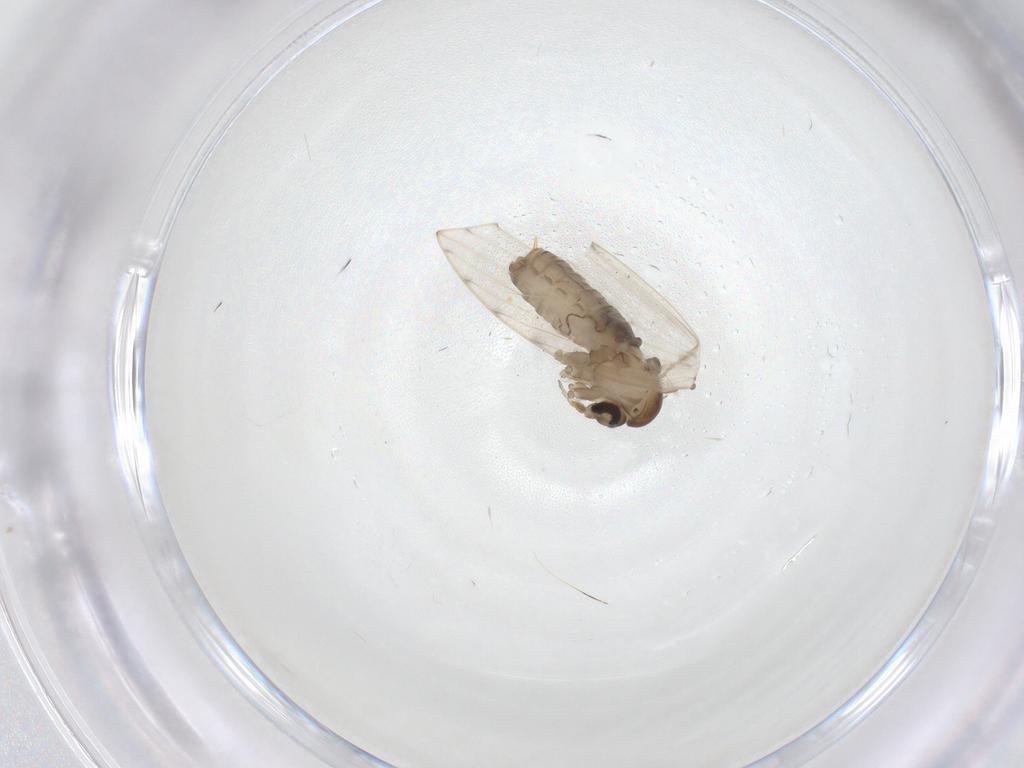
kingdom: Animalia
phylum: Arthropoda
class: Insecta
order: Diptera
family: Psychodidae
